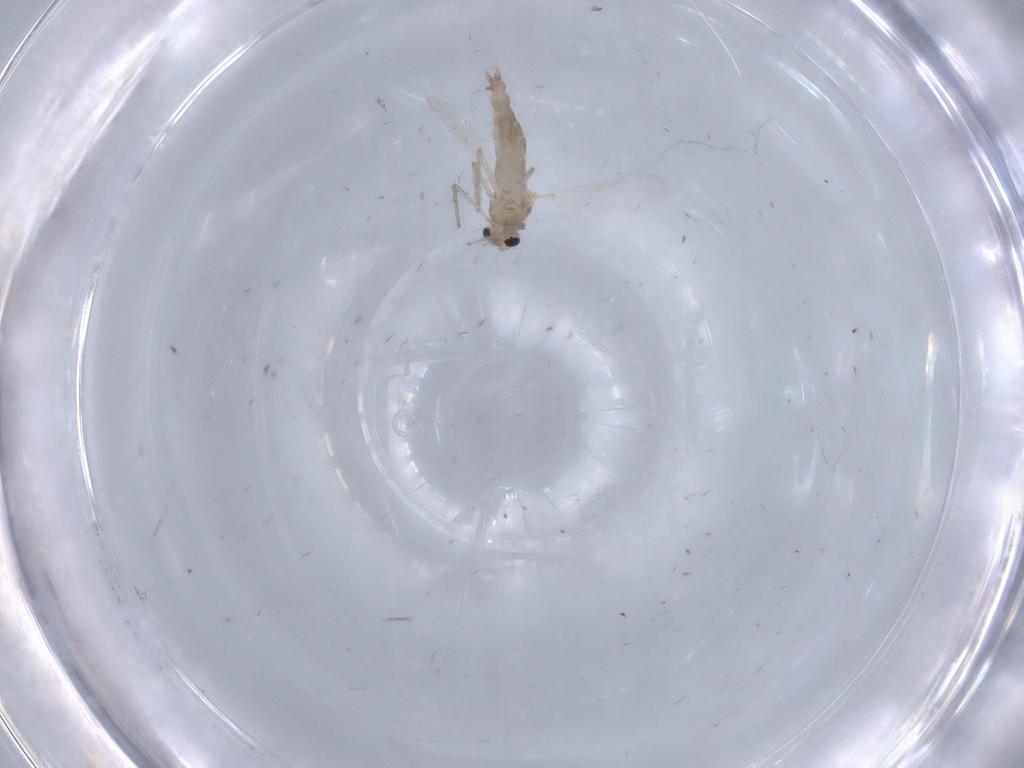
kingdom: Animalia
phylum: Arthropoda
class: Insecta
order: Diptera
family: Chironomidae
